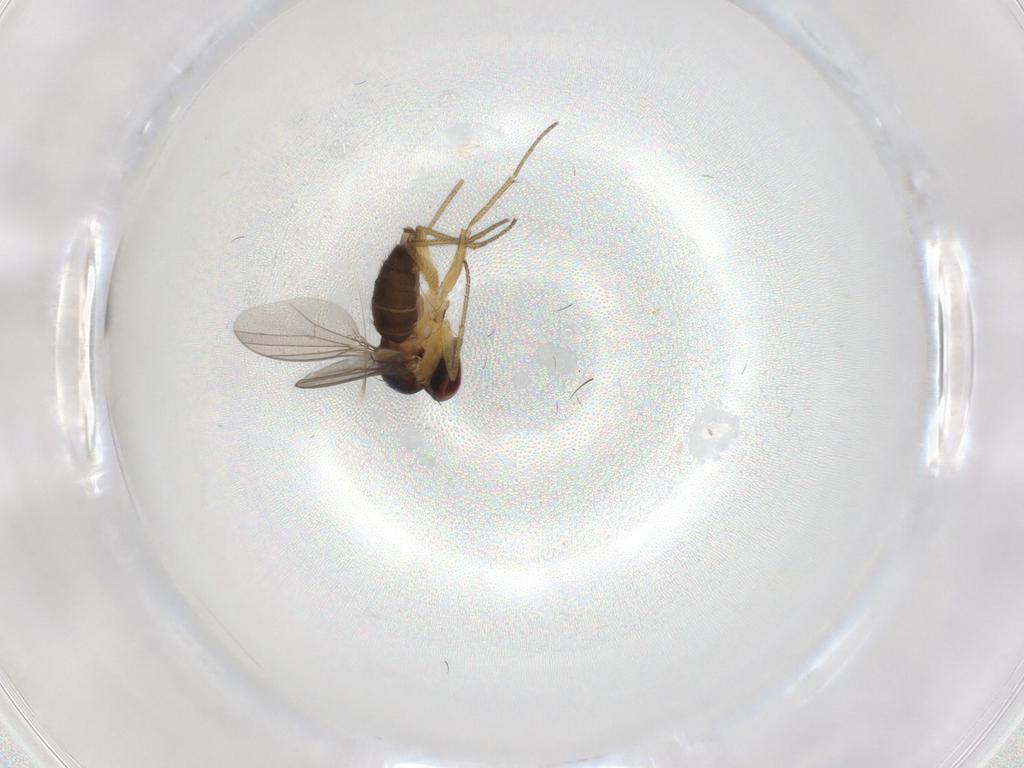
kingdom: Animalia
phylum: Arthropoda
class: Insecta
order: Diptera
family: Dolichopodidae
